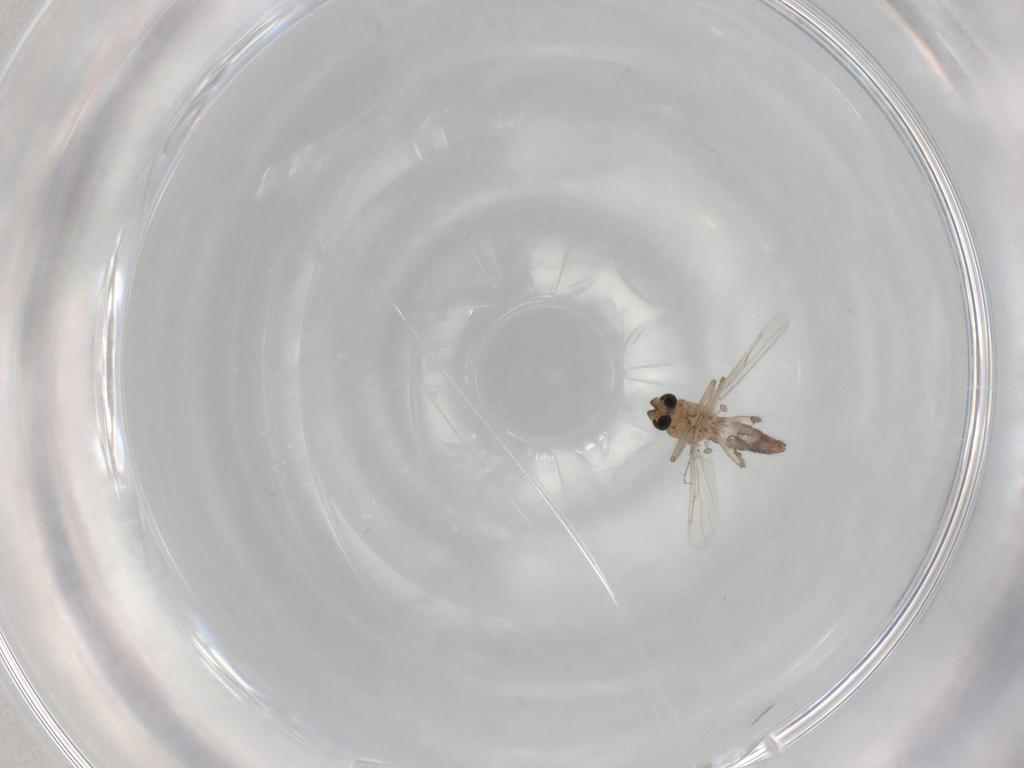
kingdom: Animalia
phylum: Arthropoda
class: Insecta
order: Diptera
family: Ceratopogonidae
